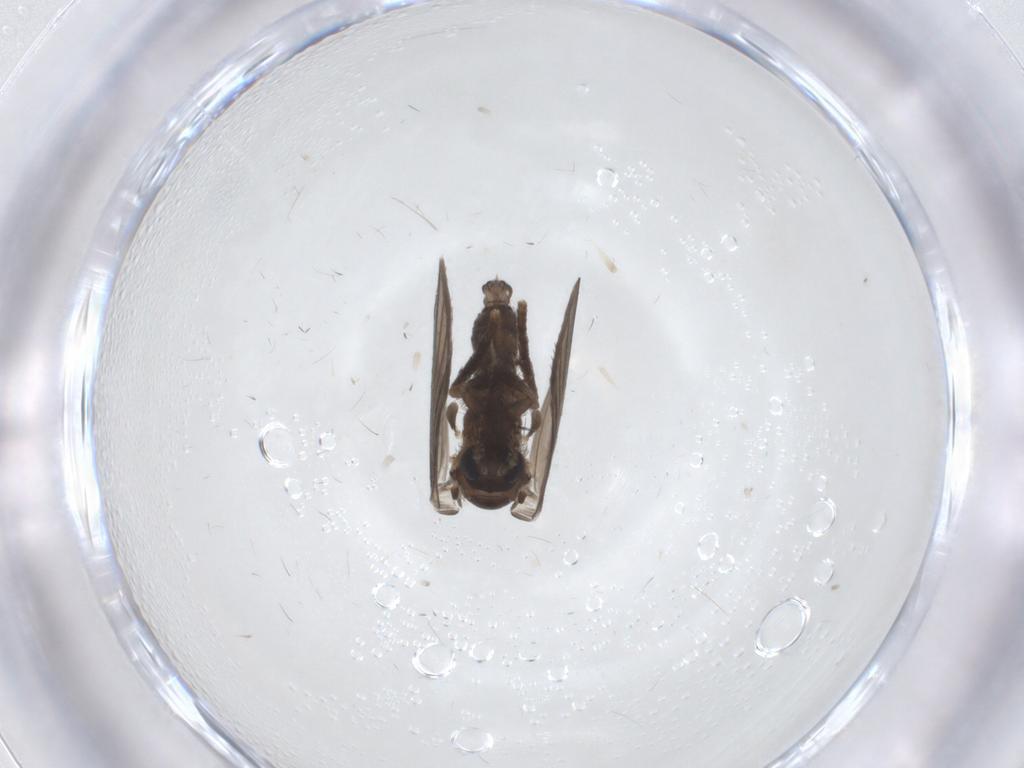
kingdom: Animalia
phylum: Arthropoda
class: Insecta
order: Diptera
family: Psychodidae
